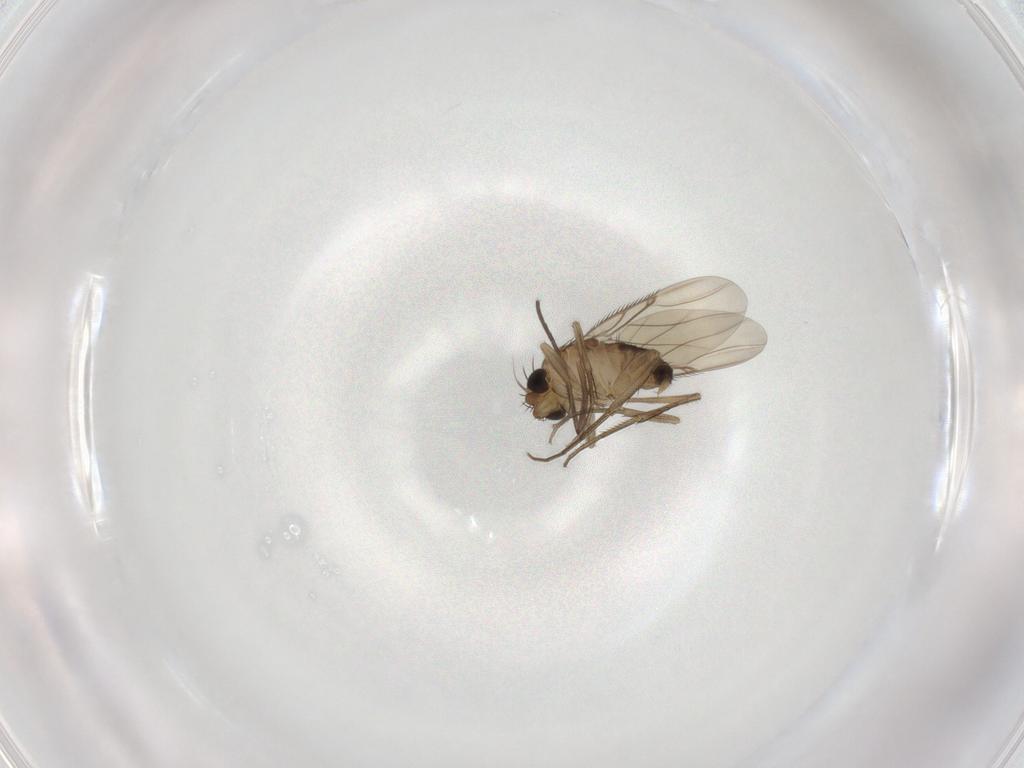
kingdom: Animalia
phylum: Arthropoda
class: Insecta
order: Diptera
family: Phoridae
